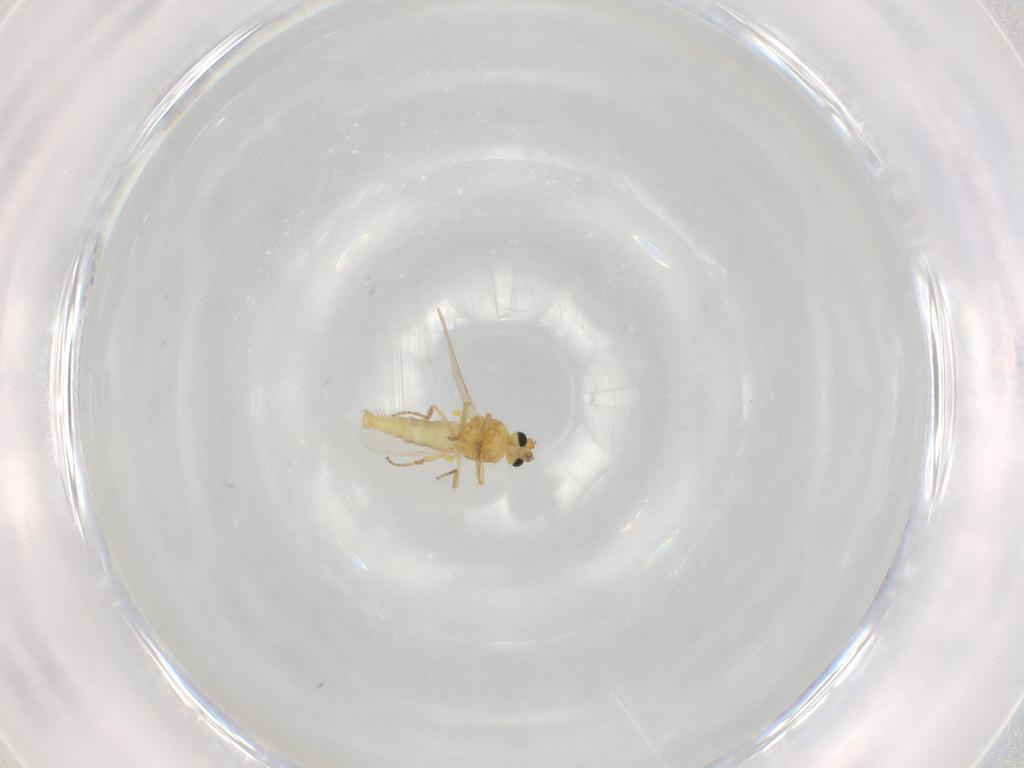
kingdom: Animalia
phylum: Arthropoda
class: Insecta
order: Diptera
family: Ceratopogonidae
